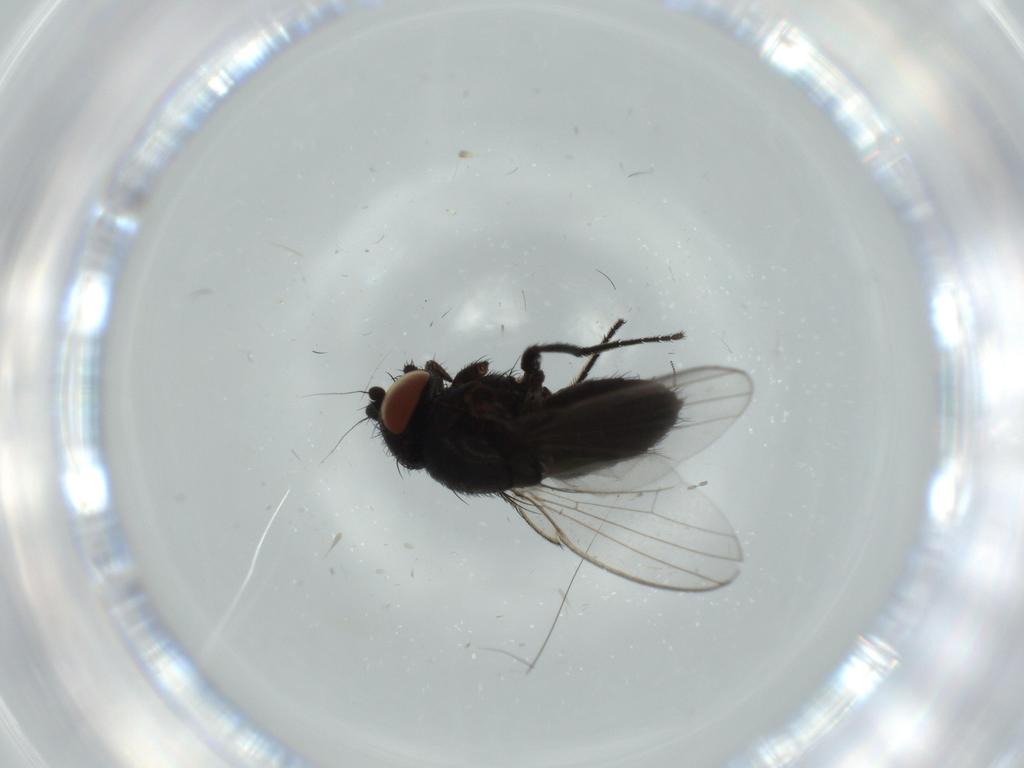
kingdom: Animalia
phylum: Arthropoda
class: Insecta
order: Diptera
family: Milichiidae
